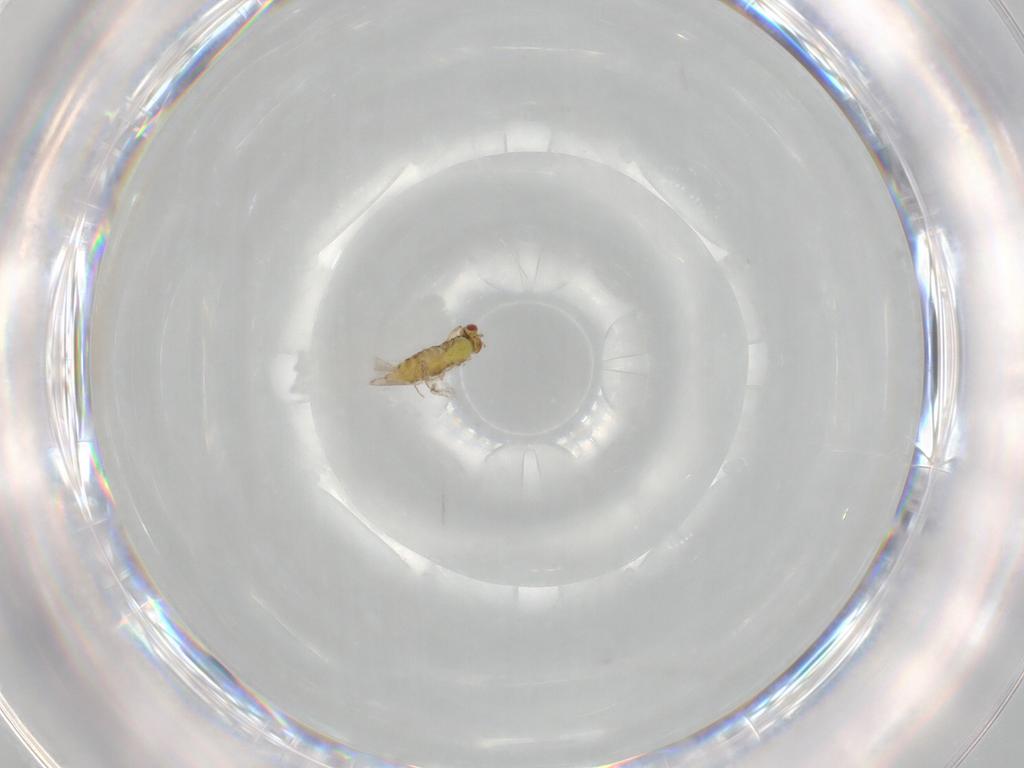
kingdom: Animalia
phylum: Arthropoda
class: Insecta
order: Hymenoptera
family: Trichogrammatidae
